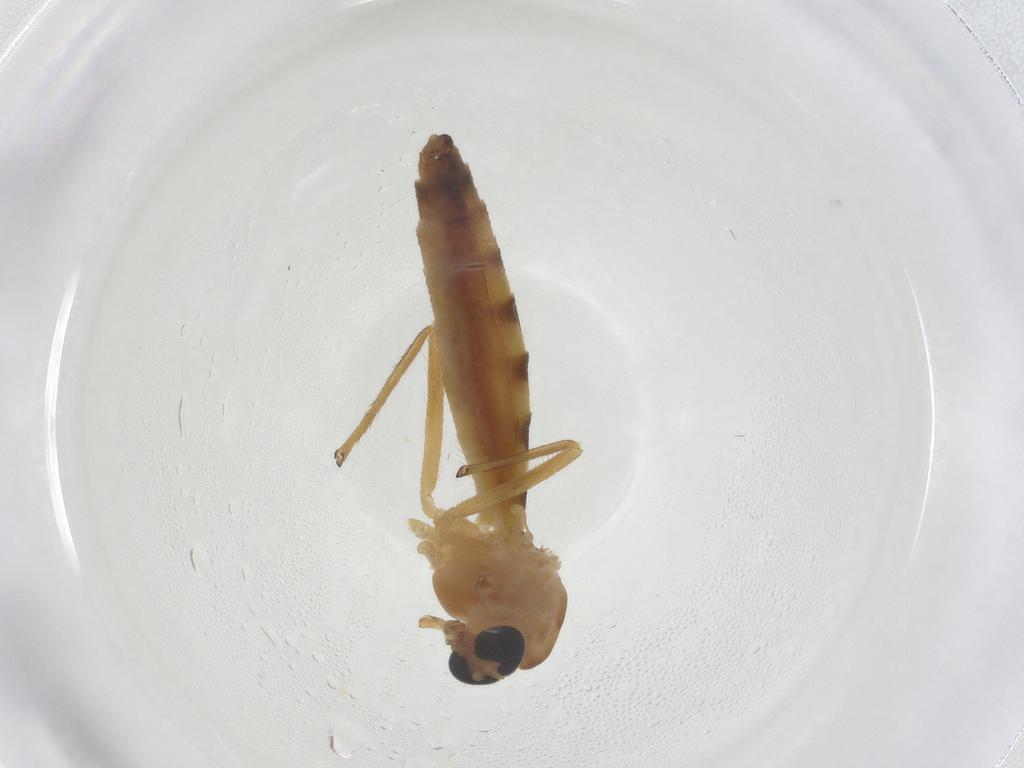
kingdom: Animalia
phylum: Arthropoda
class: Insecta
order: Diptera
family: Chironomidae
